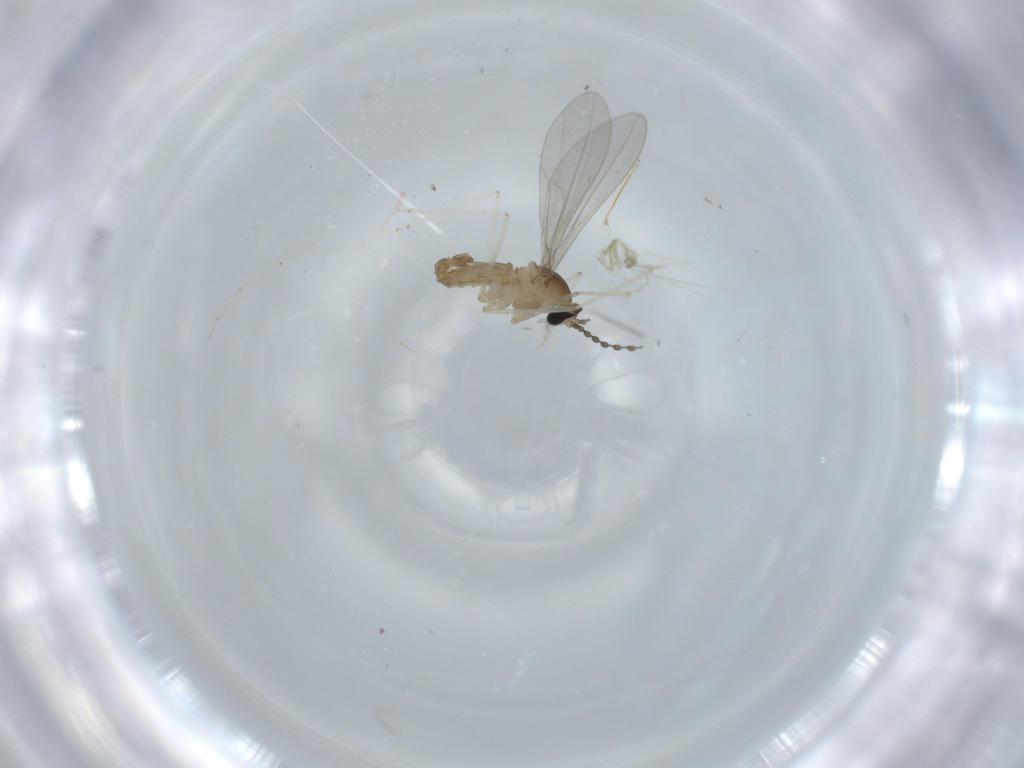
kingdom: Animalia
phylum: Arthropoda
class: Insecta
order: Diptera
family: Cecidomyiidae
